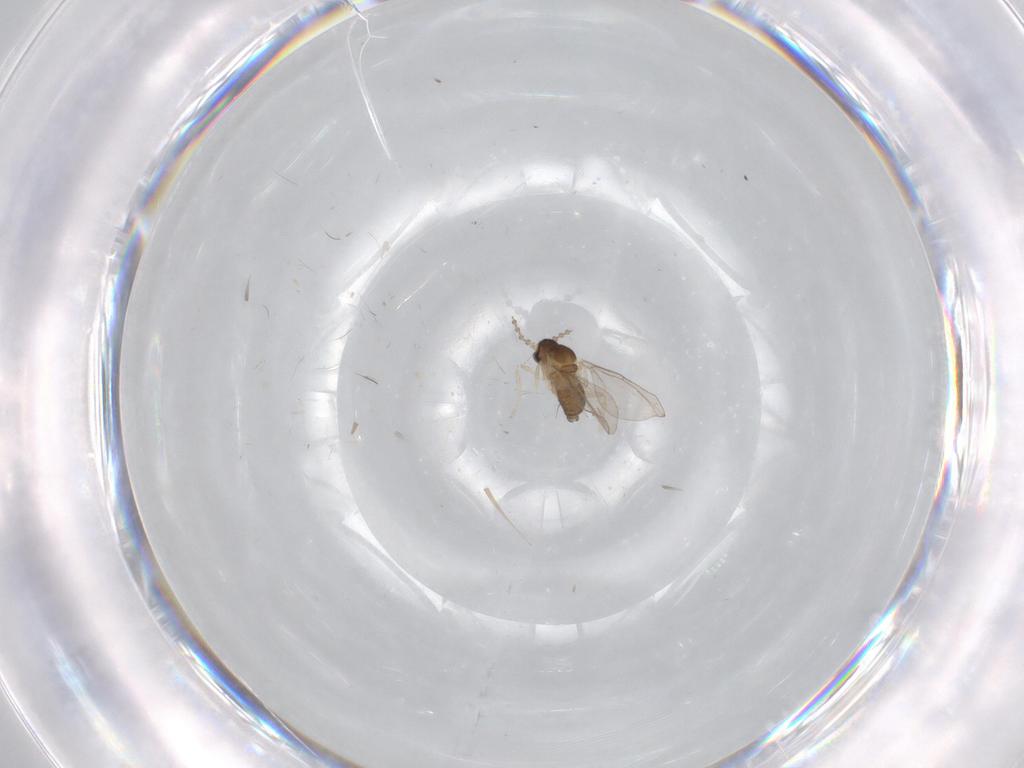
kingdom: Animalia
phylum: Arthropoda
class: Insecta
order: Diptera
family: Cecidomyiidae
